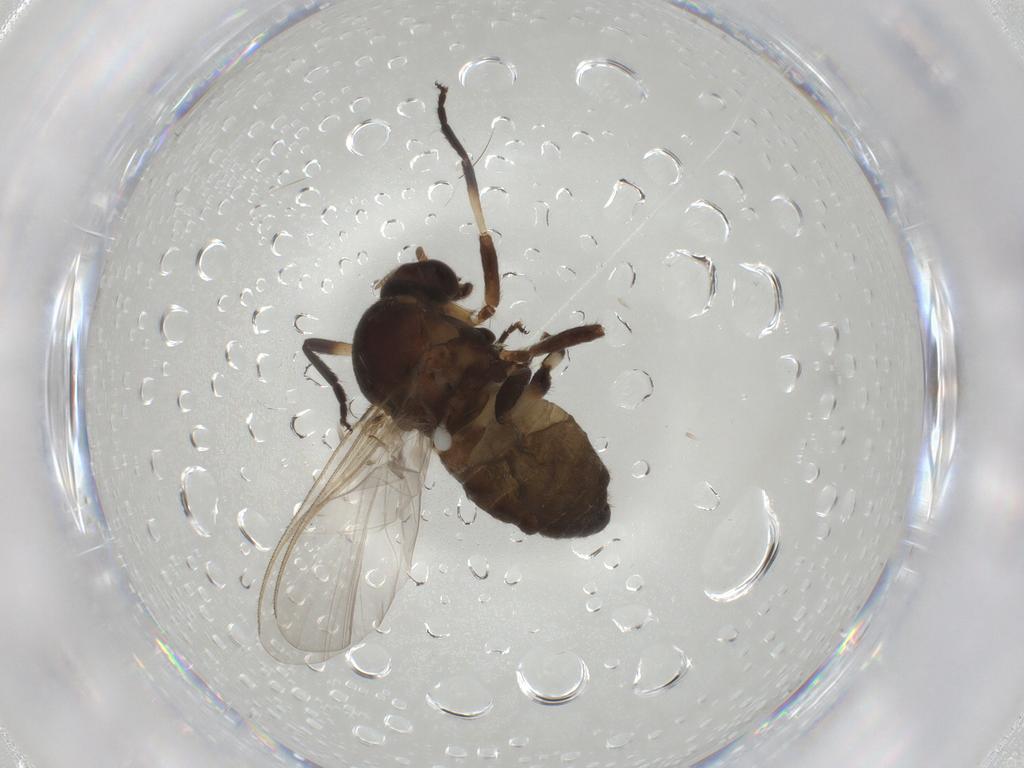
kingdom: Animalia
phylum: Arthropoda
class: Insecta
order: Diptera
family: Simuliidae
